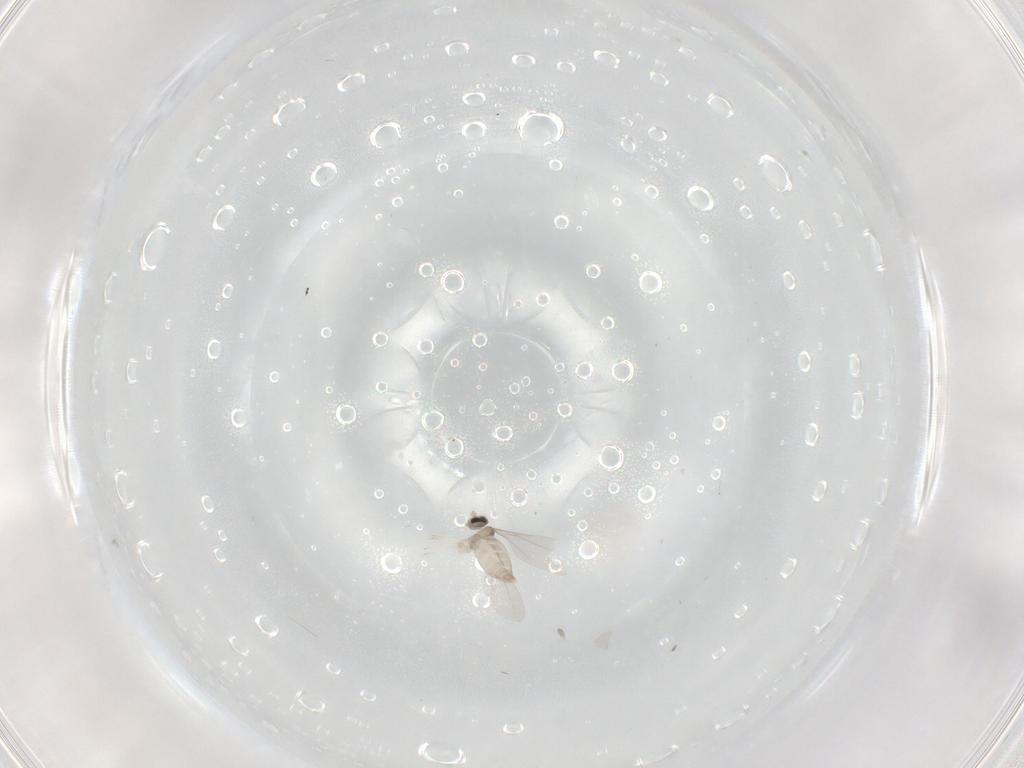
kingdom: Animalia
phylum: Arthropoda
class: Insecta
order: Diptera
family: Cecidomyiidae
